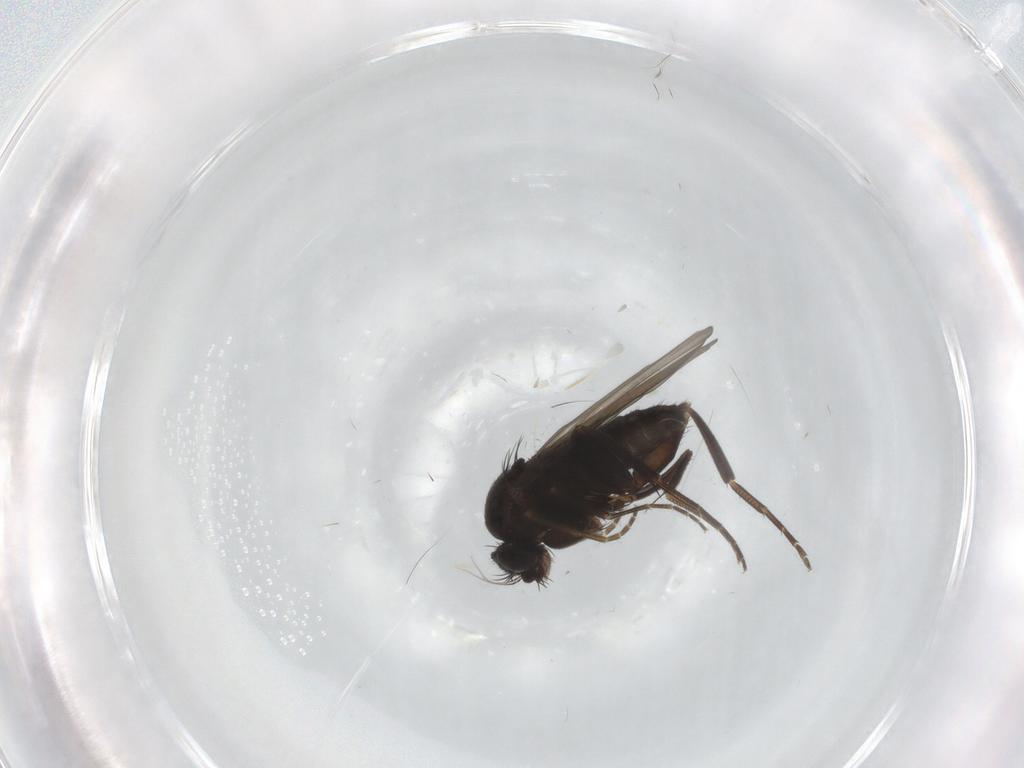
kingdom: Animalia
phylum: Arthropoda
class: Insecta
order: Diptera
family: Phoridae
